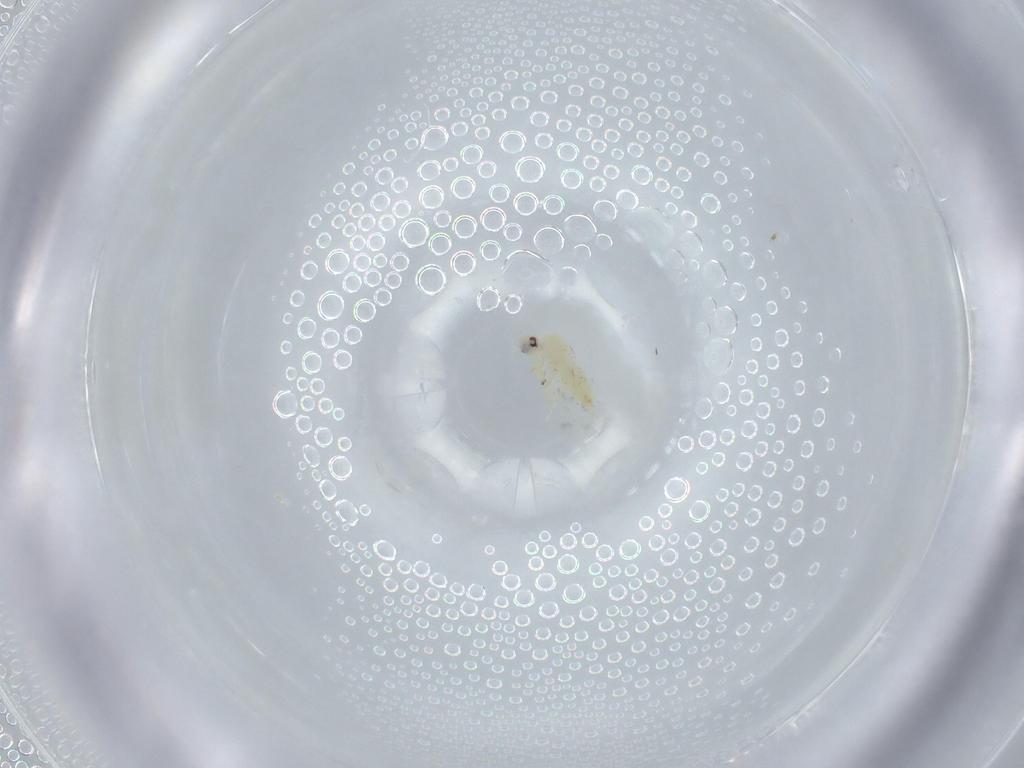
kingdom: Animalia
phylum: Arthropoda
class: Insecta
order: Hemiptera
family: Aleyrodidae
